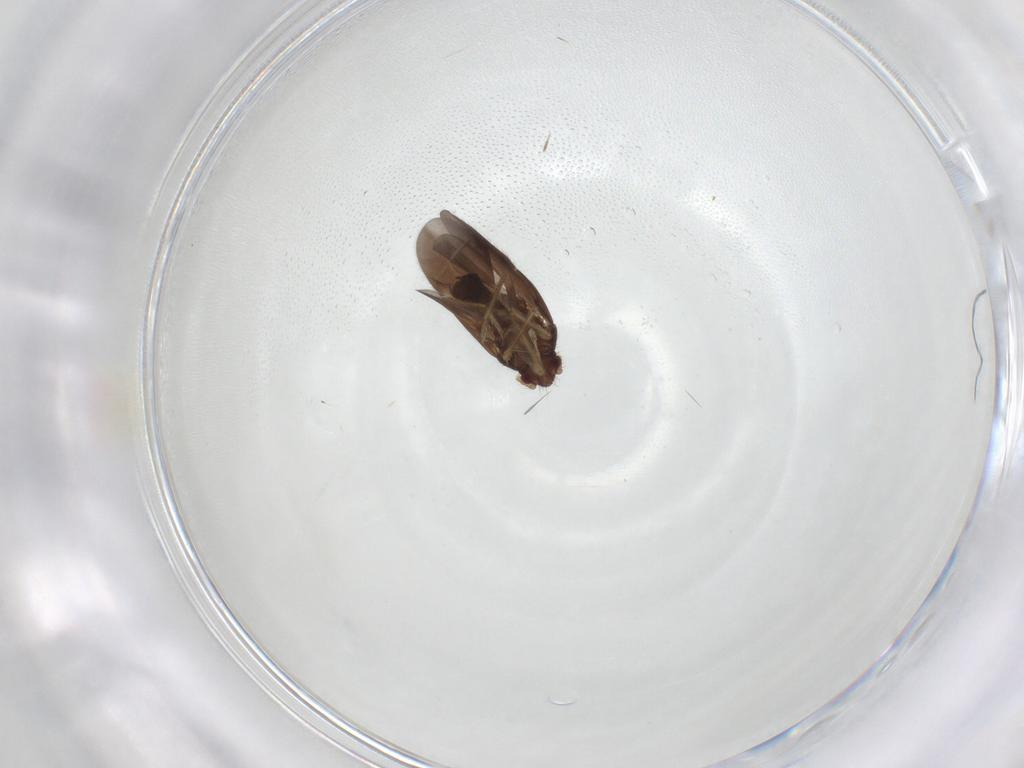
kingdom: Animalia
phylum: Arthropoda
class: Insecta
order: Hemiptera
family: Ceratocombidae
